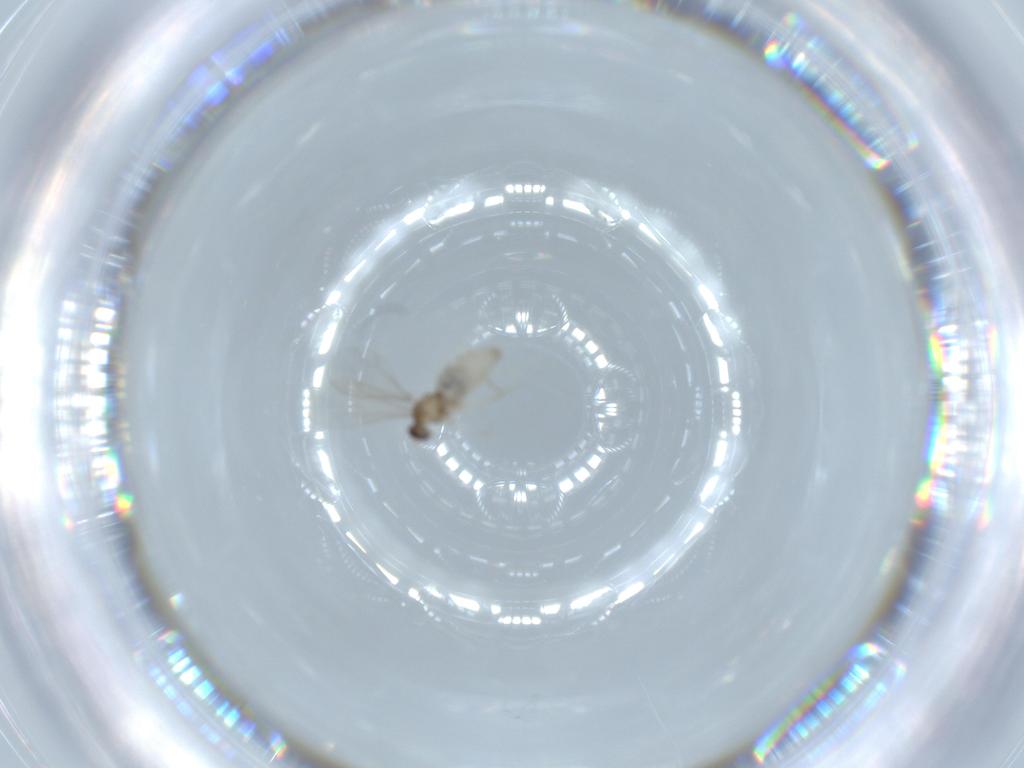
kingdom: Animalia
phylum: Arthropoda
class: Insecta
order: Diptera
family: Cecidomyiidae
